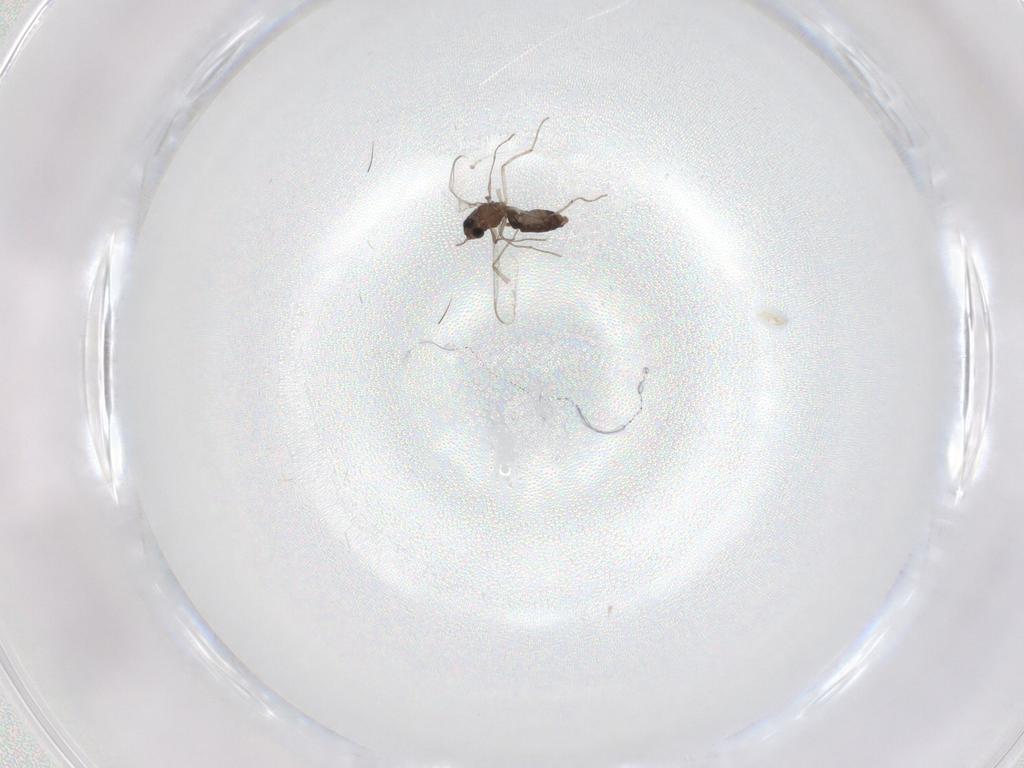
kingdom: Animalia
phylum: Arthropoda
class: Insecta
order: Diptera
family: Chironomidae
